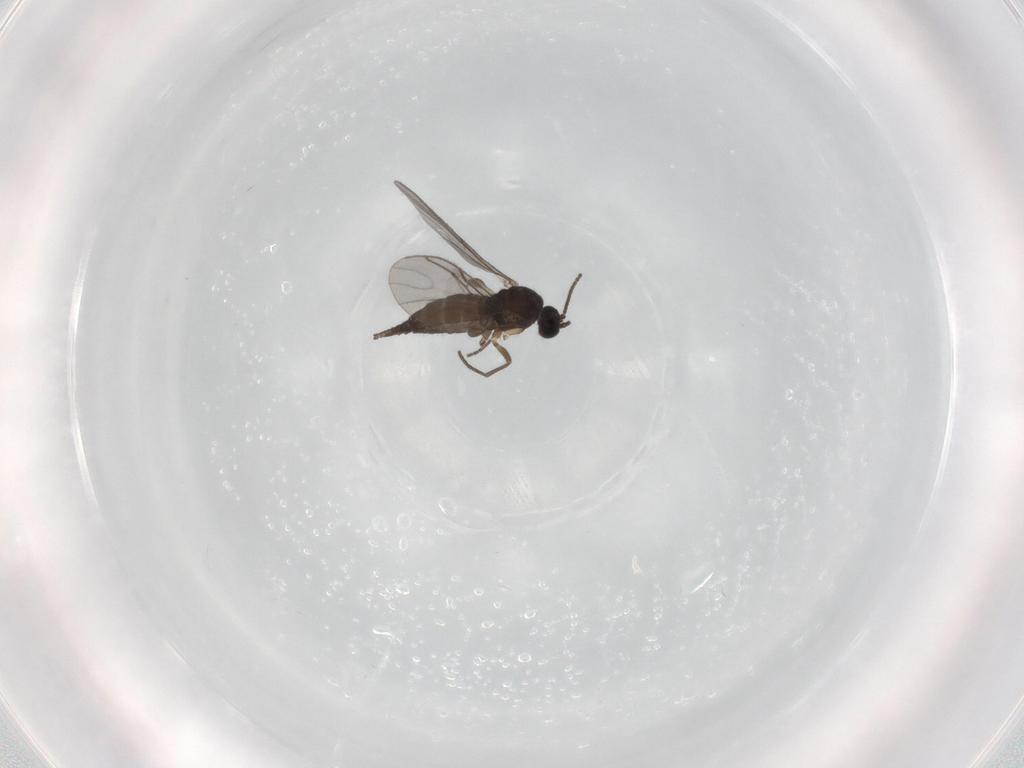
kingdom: Animalia
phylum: Arthropoda
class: Insecta
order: Diptera
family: Sciaridae
